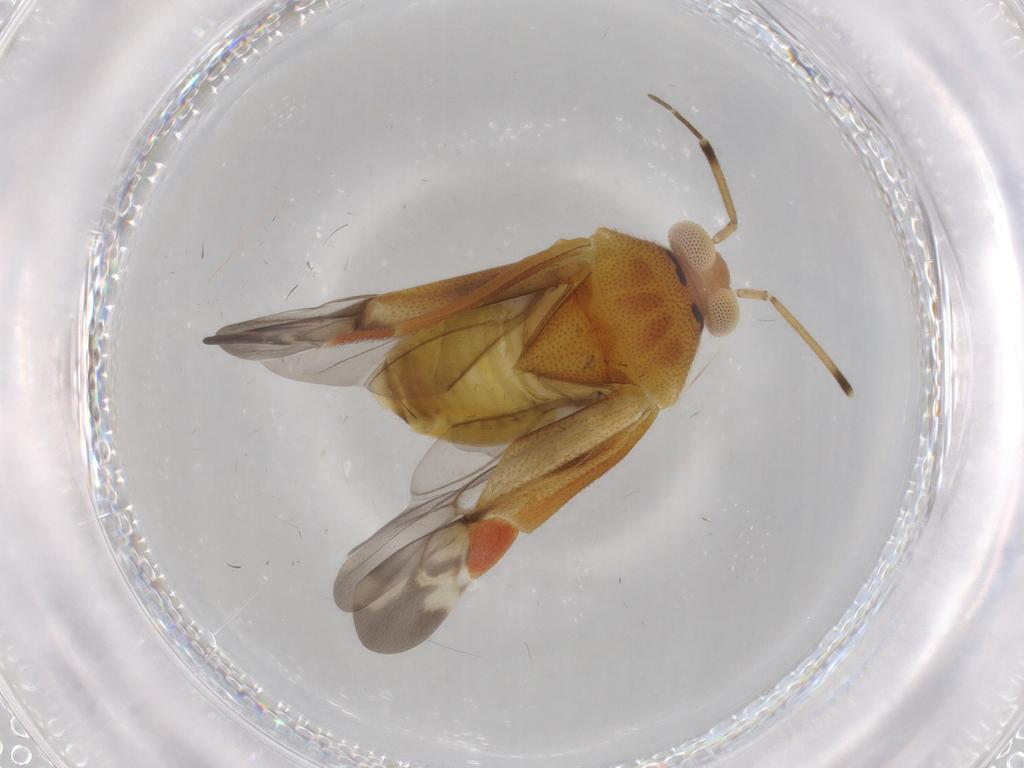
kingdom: Animalia
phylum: Arthropoda
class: Insecta
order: Hemiptera
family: Miridae
